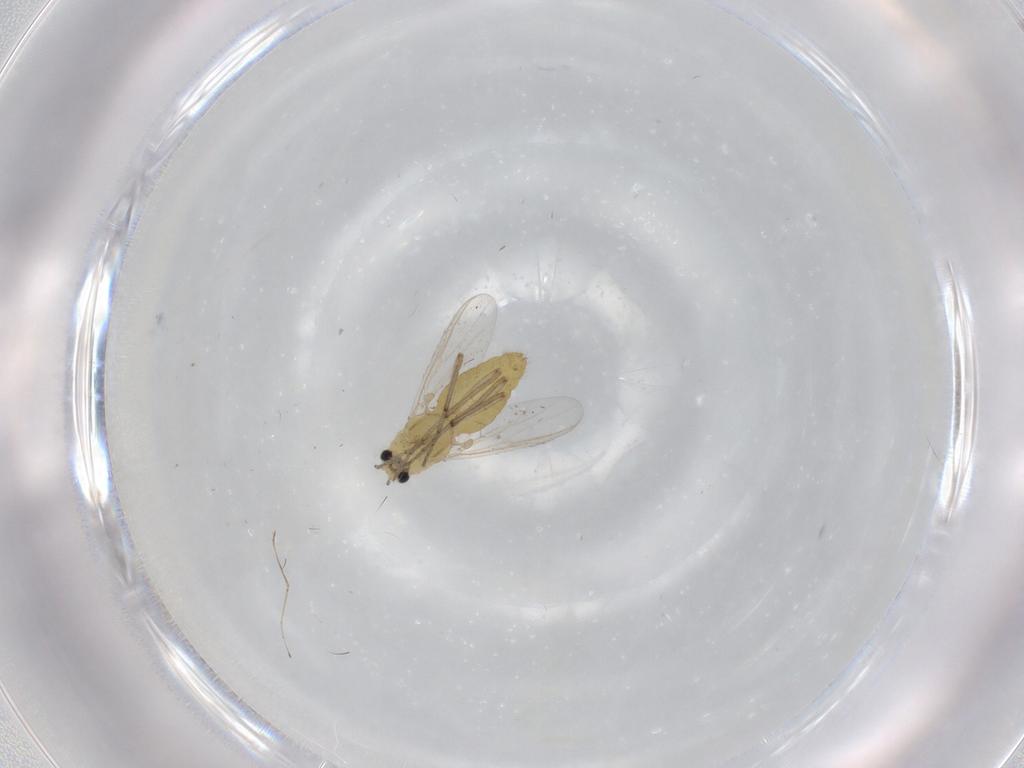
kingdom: Animalia
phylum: Arthropoda
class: Insecta
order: Diptera
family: Chironomidae
